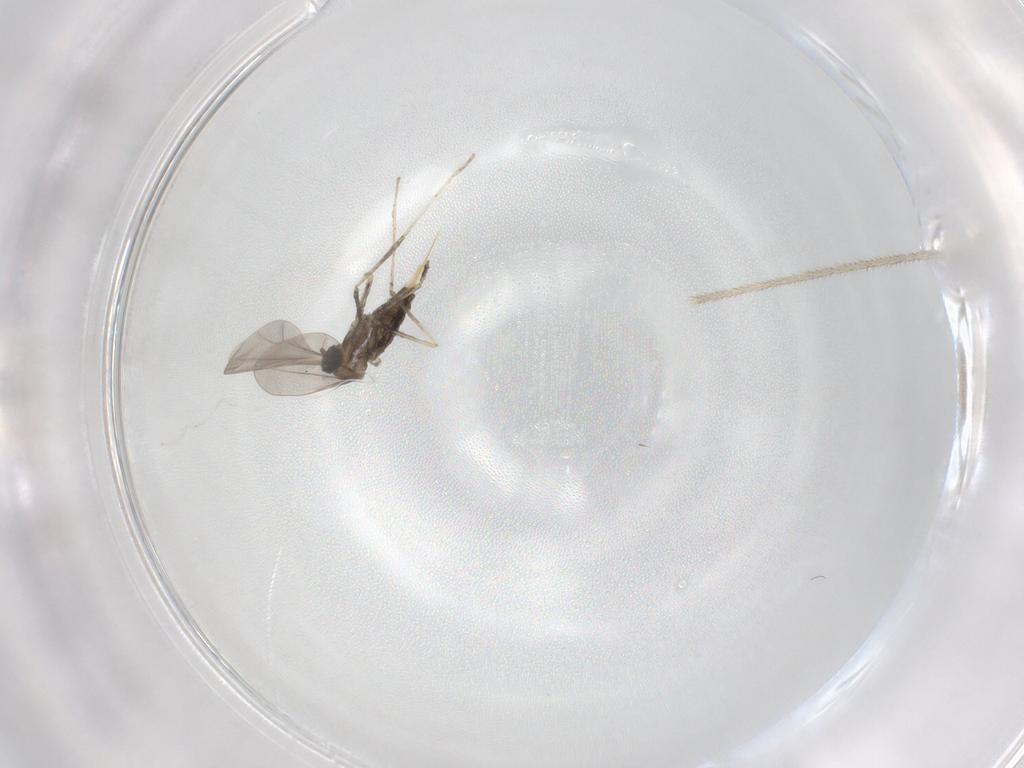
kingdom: Animalia
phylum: Arthropoda
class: Insecta
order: Diptera
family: Cecidomyiidae
